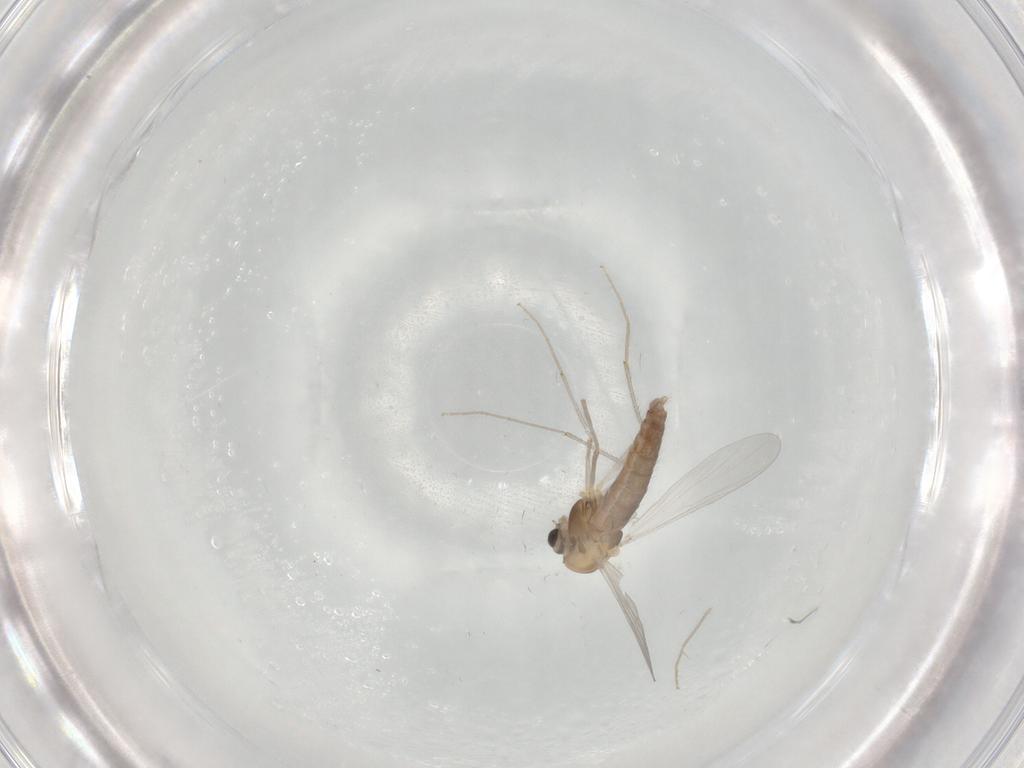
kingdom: Animalia
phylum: Arthropoda
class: Insecta
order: Diptera
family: Chironomidae
